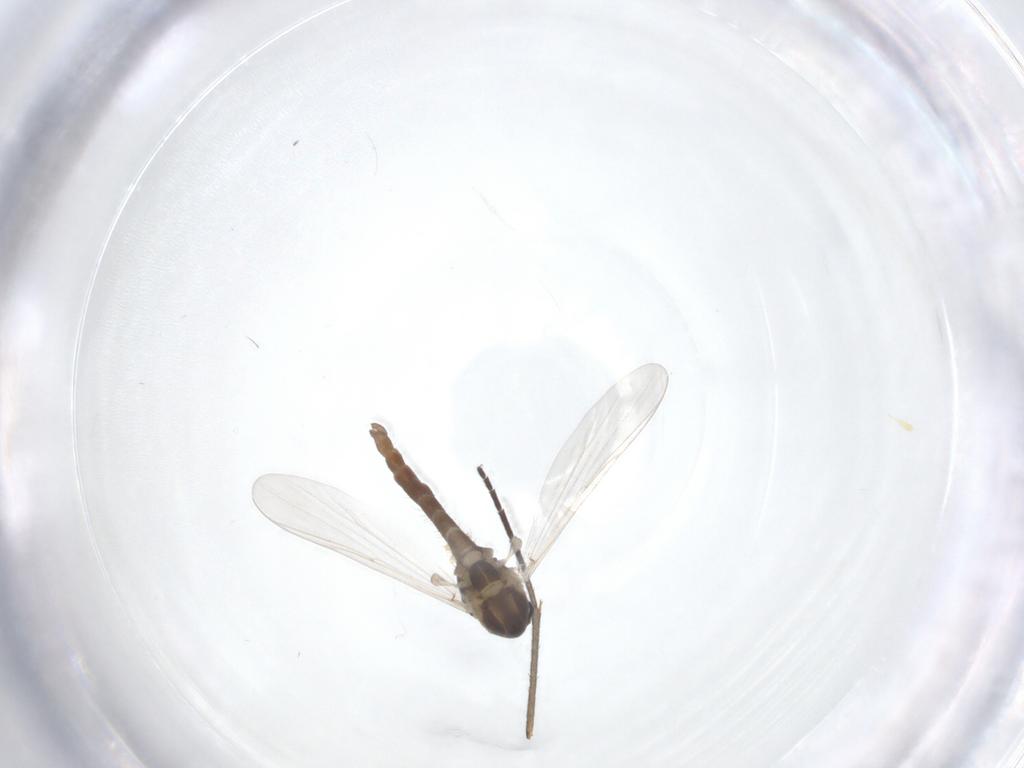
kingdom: Animalia
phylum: Arthropoda
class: Insecta
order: Diptera
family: Chironomidae
